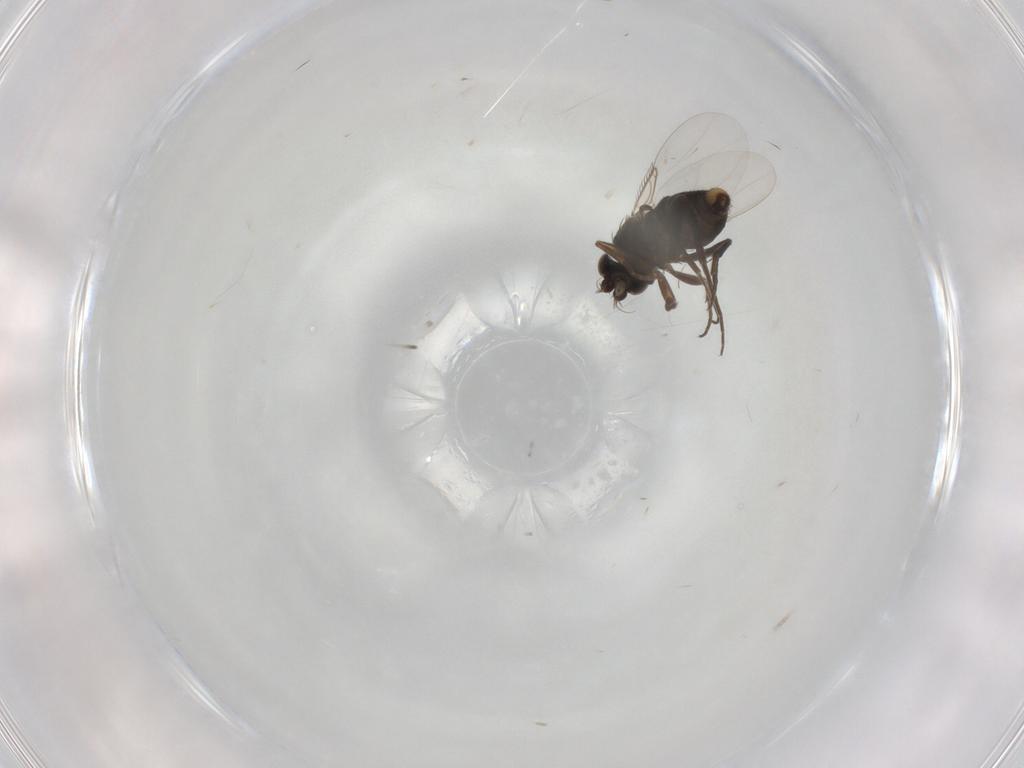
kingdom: Animalia
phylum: Arthropoda
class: Insecta
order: Diptera
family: Phoridae
